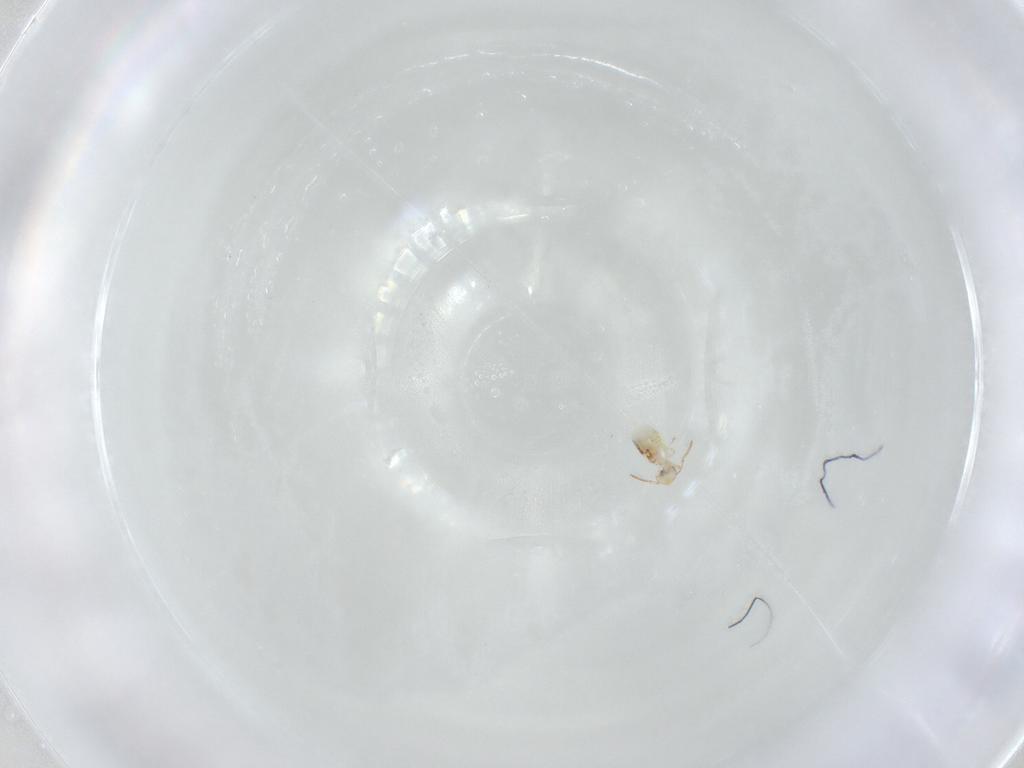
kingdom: Animalia
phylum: Arthropoda
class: Collembola
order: Symphypleona
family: Bourletiellidae
